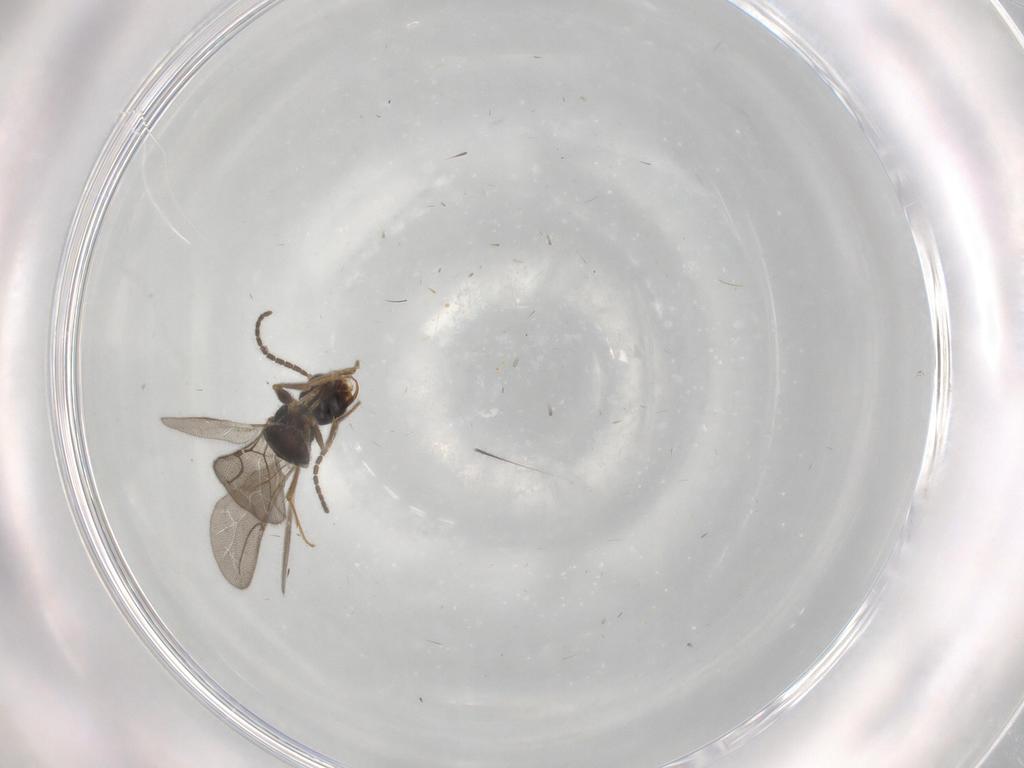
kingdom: Animalia
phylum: Arthropoda
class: Insecta
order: Hymenoptera
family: Bethylidae
